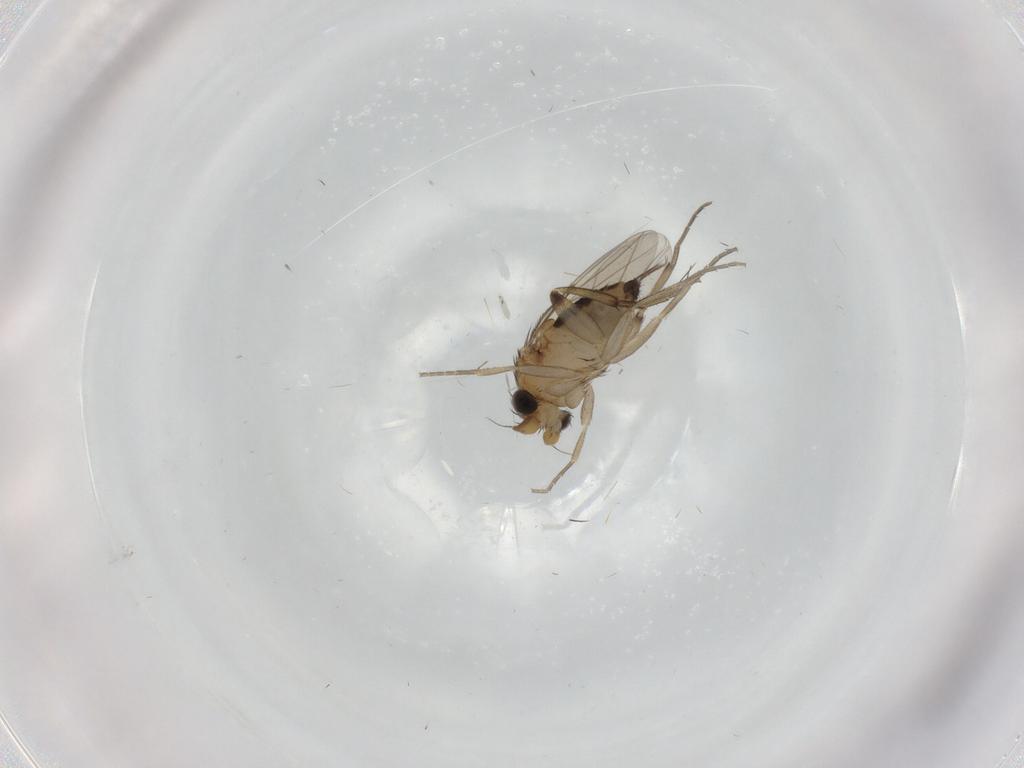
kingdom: Animalia
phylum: Arthropoda
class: Insecta
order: Diptera
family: Phoridae
